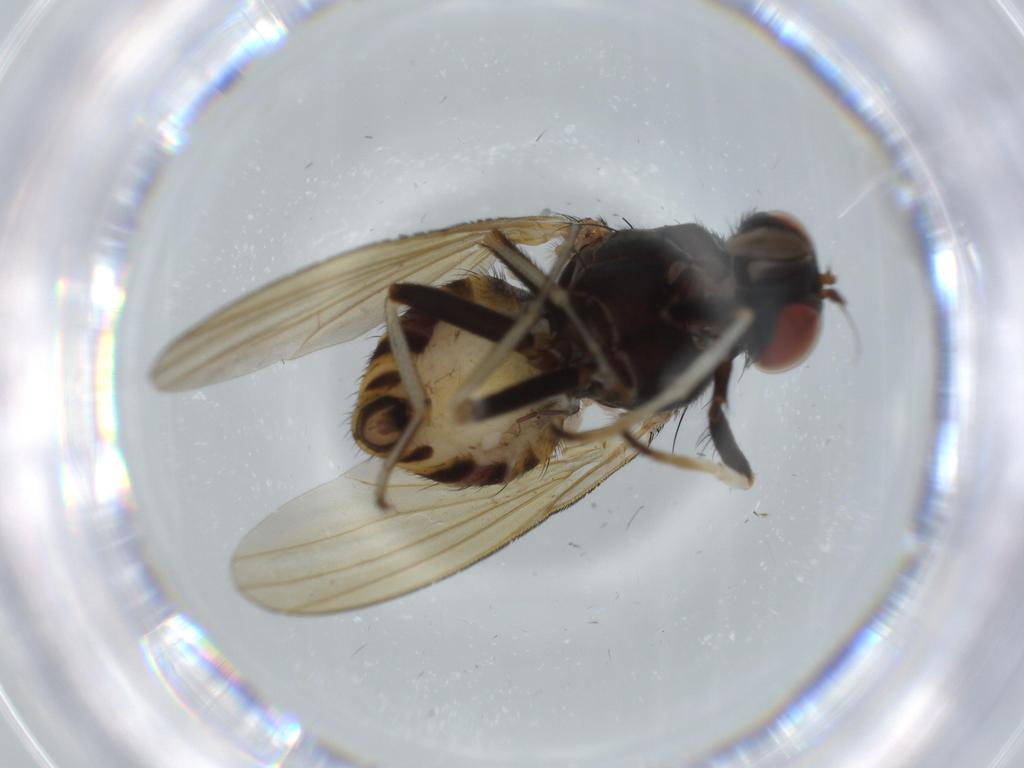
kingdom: Animalia
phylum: Arthropoda
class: Insecta
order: Diptera
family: Cecidomyiidae
